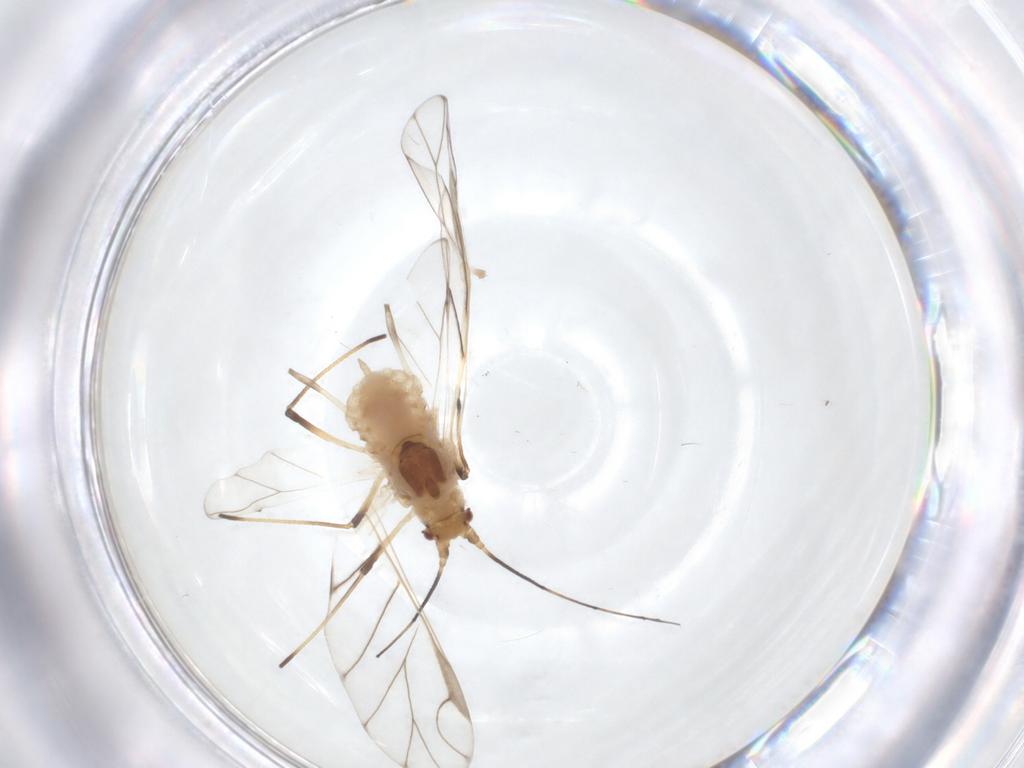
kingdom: Animalia
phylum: Arthropoda
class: Insecta
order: Hemiptera
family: Aphididae
